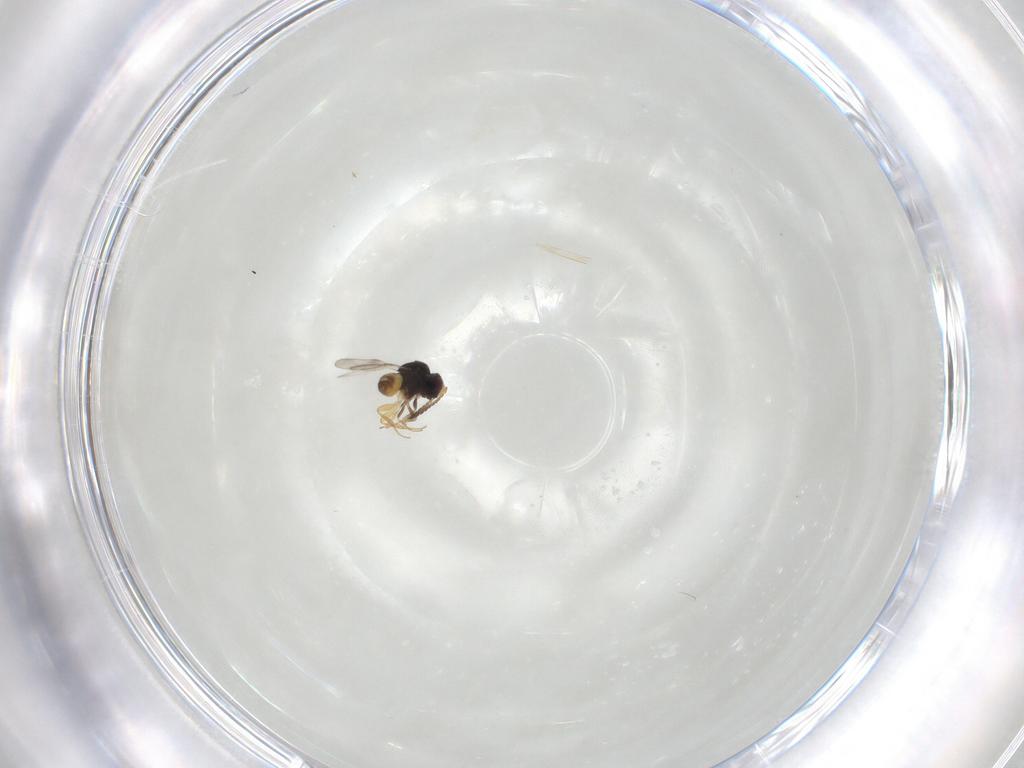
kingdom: Animalia
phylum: Arthropoda
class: Insecta
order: Hymenoptera
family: Ceraphronidae
